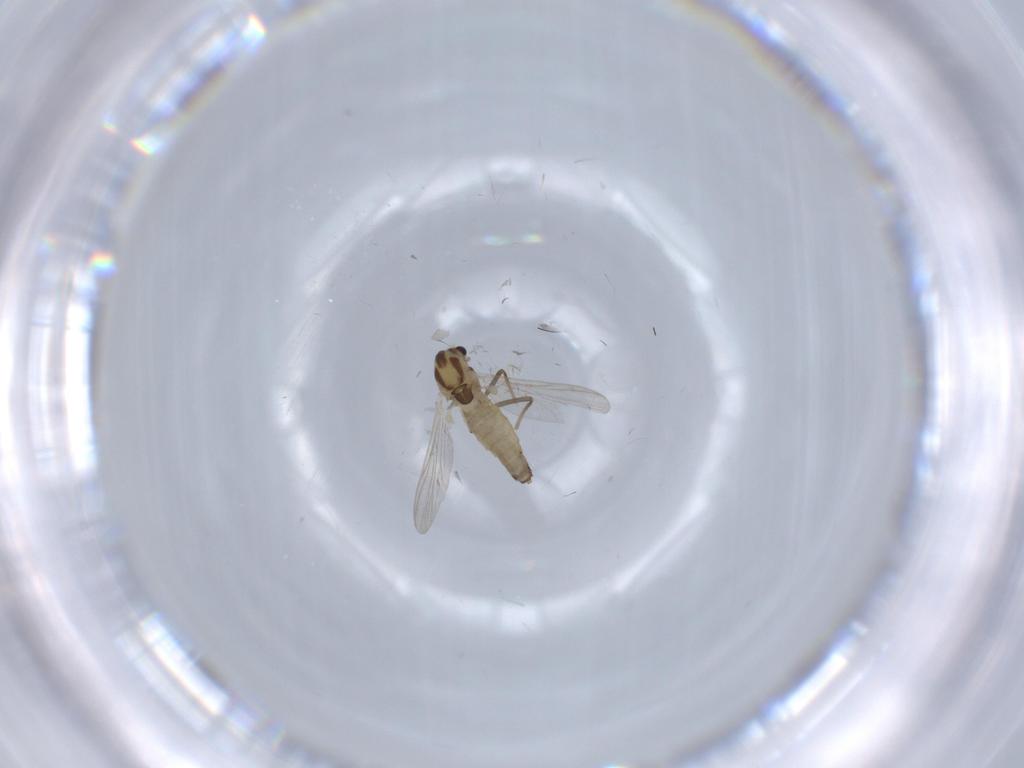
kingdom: Animalia
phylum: Arthropoda
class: Insecta
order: Diptera
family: Chironomidae
